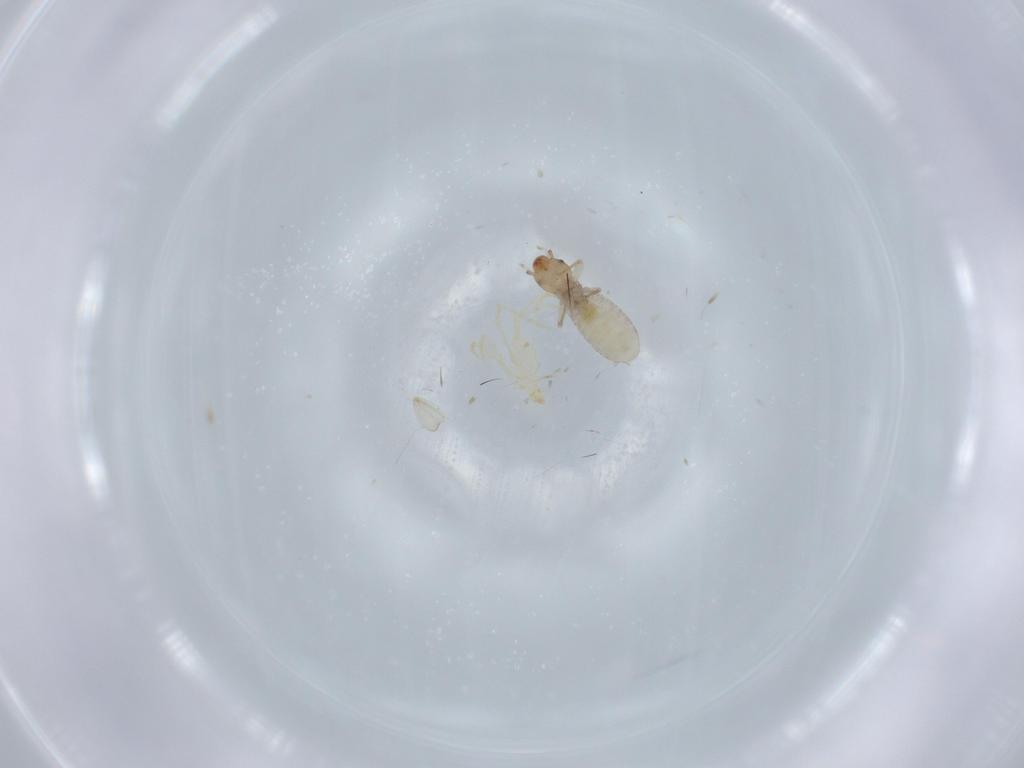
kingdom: Animalia
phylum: Arthropoda
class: Insecta
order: Psocodea
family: Liposcelididae
